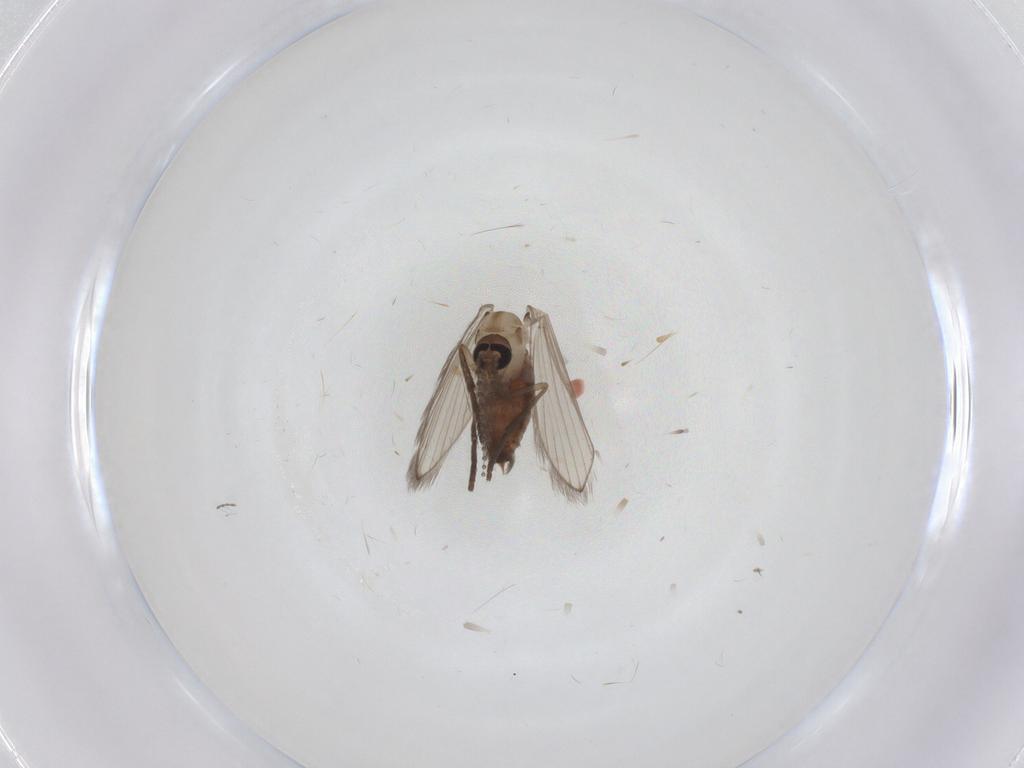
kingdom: Animalia
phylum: Arthropoda
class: Insecta
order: Diptera
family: Psychodidae
